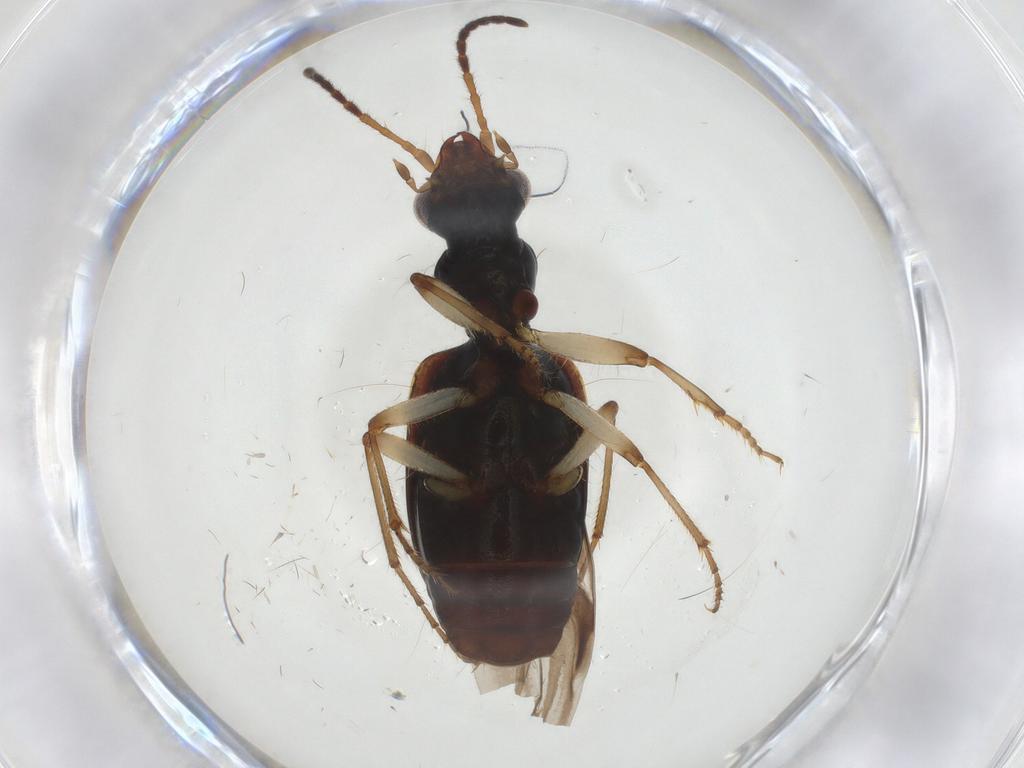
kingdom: Animalia
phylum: Arthropoda
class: Insecta
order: Coleoptera
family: Carabidae
